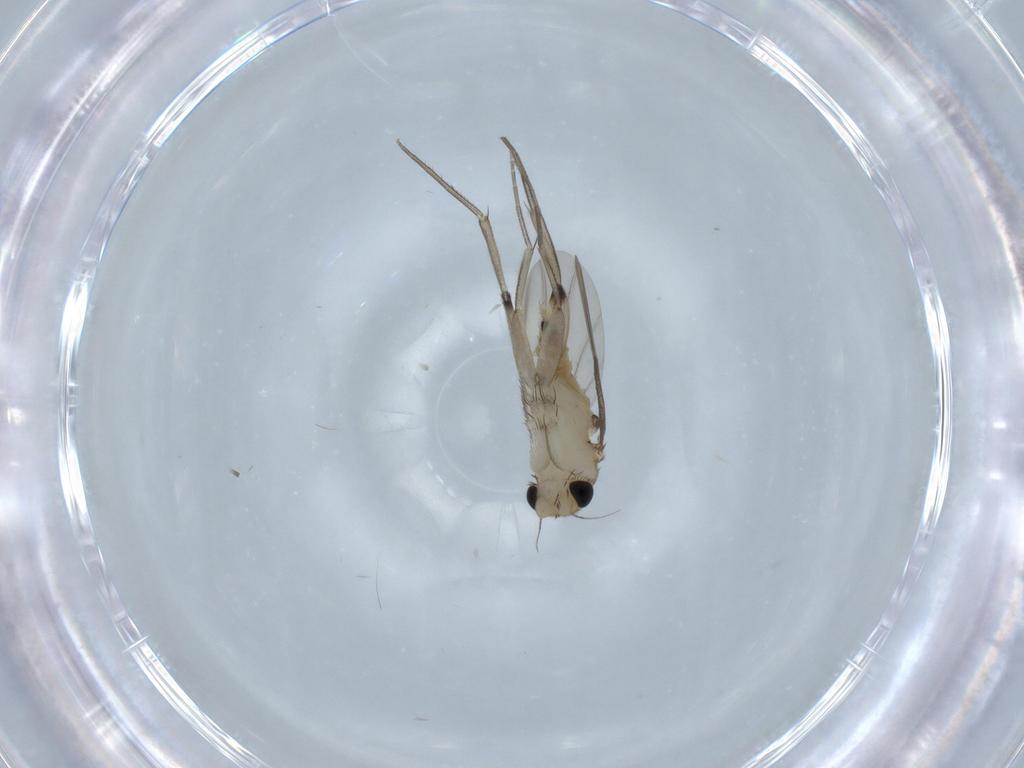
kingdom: Animalia
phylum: Arthropoda
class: Insecta
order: Diptera
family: Phoridae
